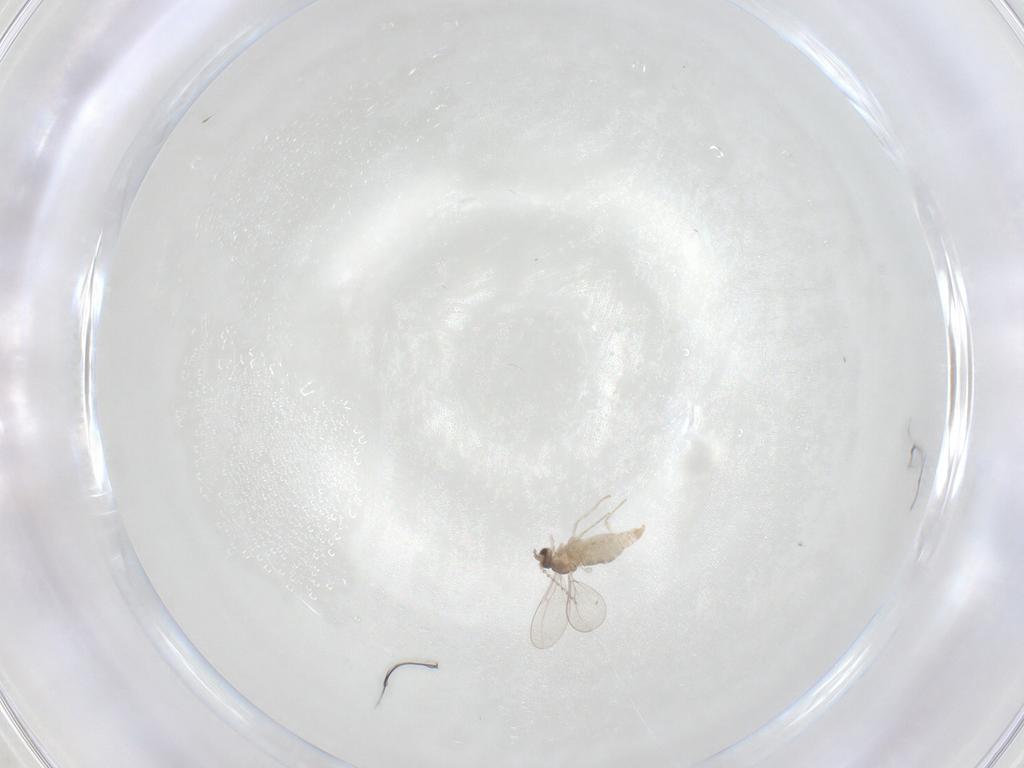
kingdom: Animalia
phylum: Arthropoda
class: Insecta
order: Diptera
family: Cecidomyiidae
